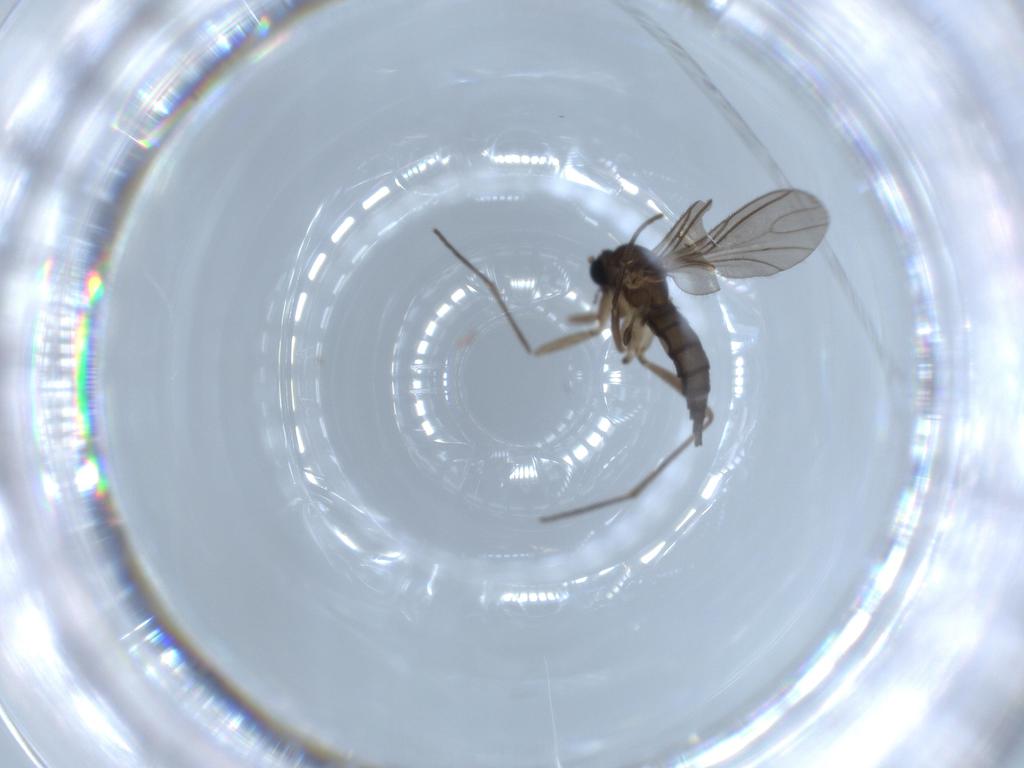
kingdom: Animalia
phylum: Arthropoda
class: Insecta
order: Diptera
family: Sciaridae
